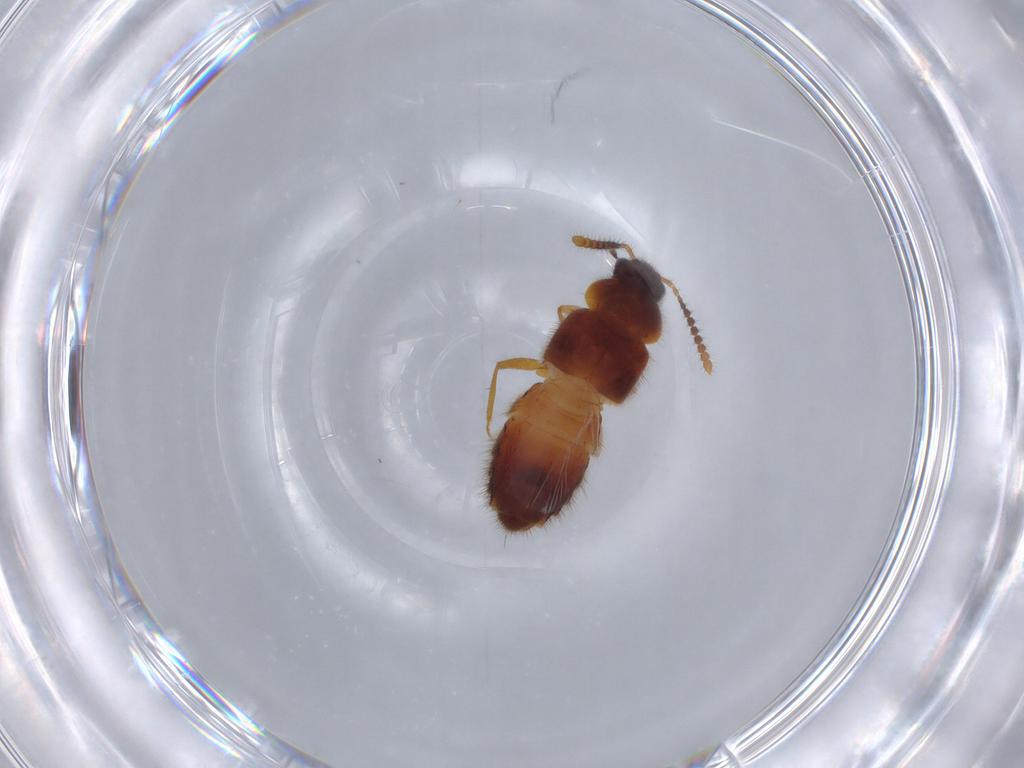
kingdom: Animalia
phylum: Arthropoda
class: Insecta
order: Coleoptera
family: Staphylinidae
